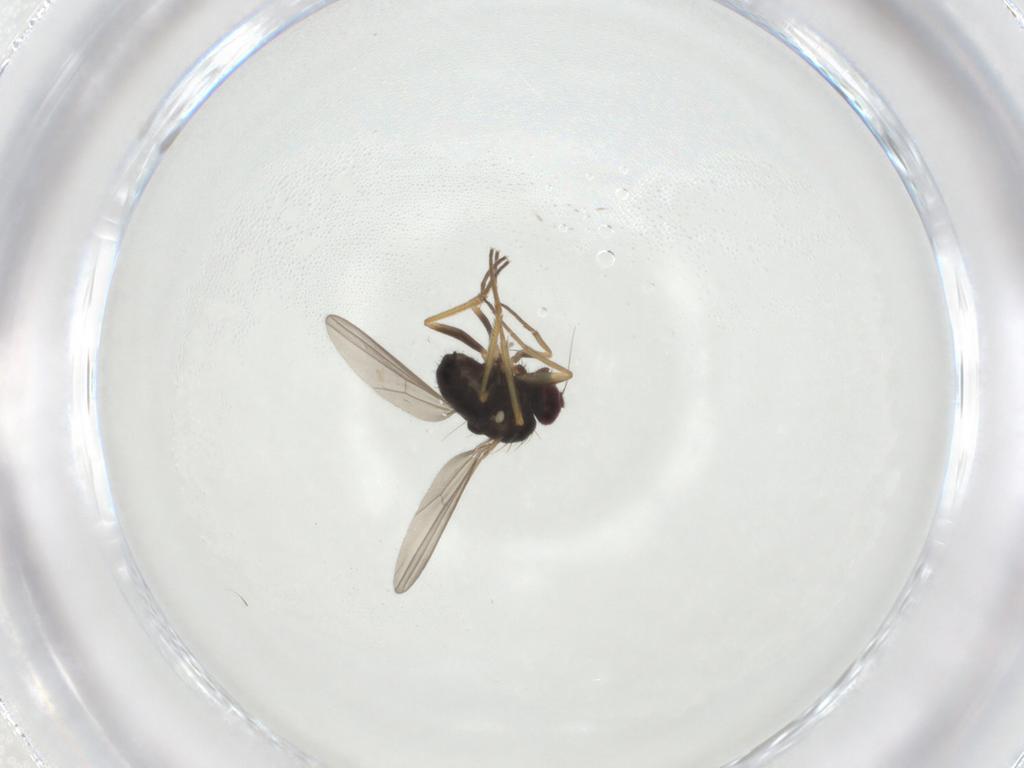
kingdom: Animalia
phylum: Arthropoda
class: Insecta
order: Diptera
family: Dolichopodidae
